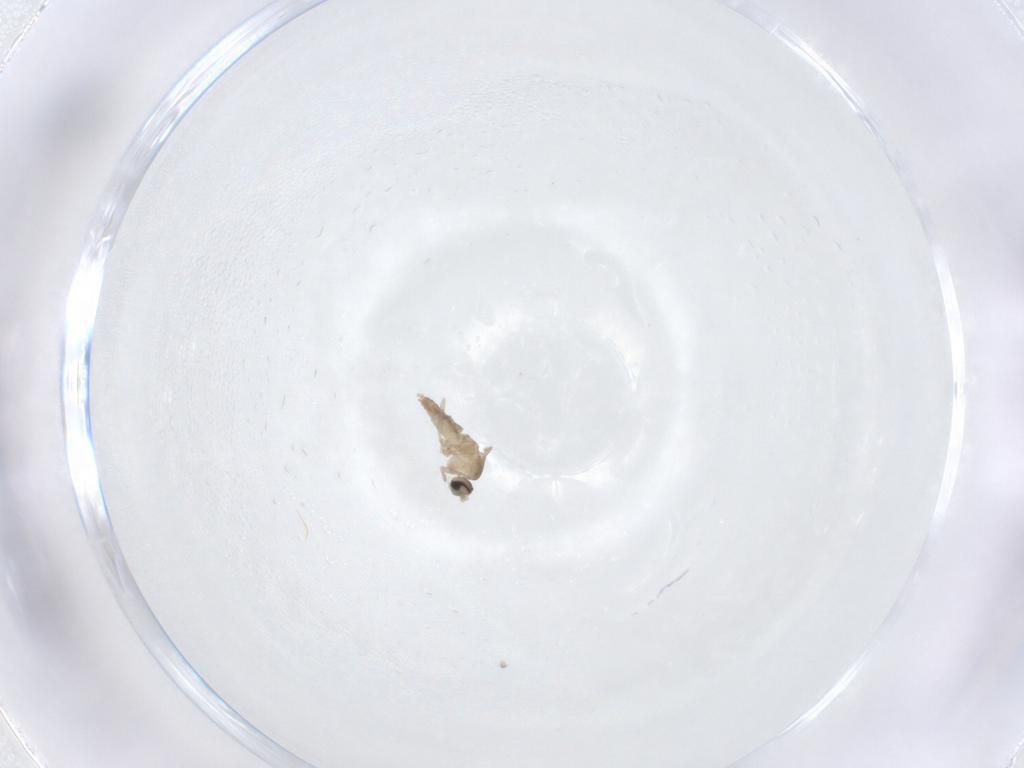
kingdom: Animalia
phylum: Arthropoda
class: Insecta
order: Diptera
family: Cecidomyiidae
